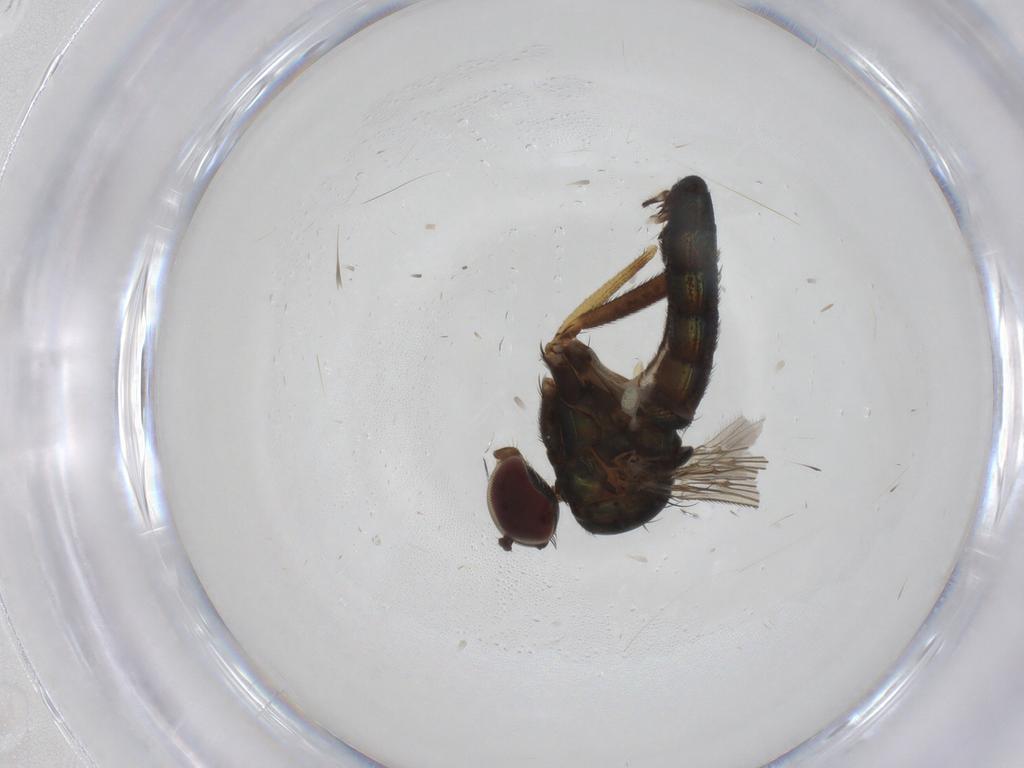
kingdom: Animalia
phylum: Arthropoda
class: Insecta
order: Diptera
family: Dolichopodidae
